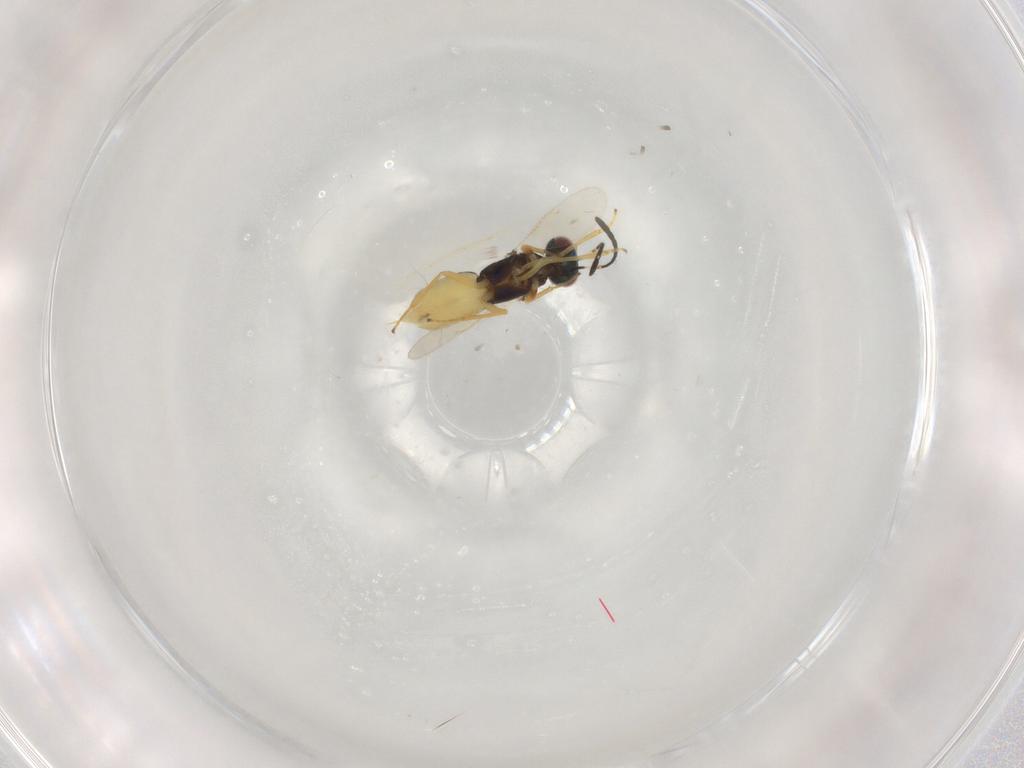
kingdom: Animalia
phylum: Arthropoda
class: Insecta
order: Hymenoptera
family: Encyrtidae
